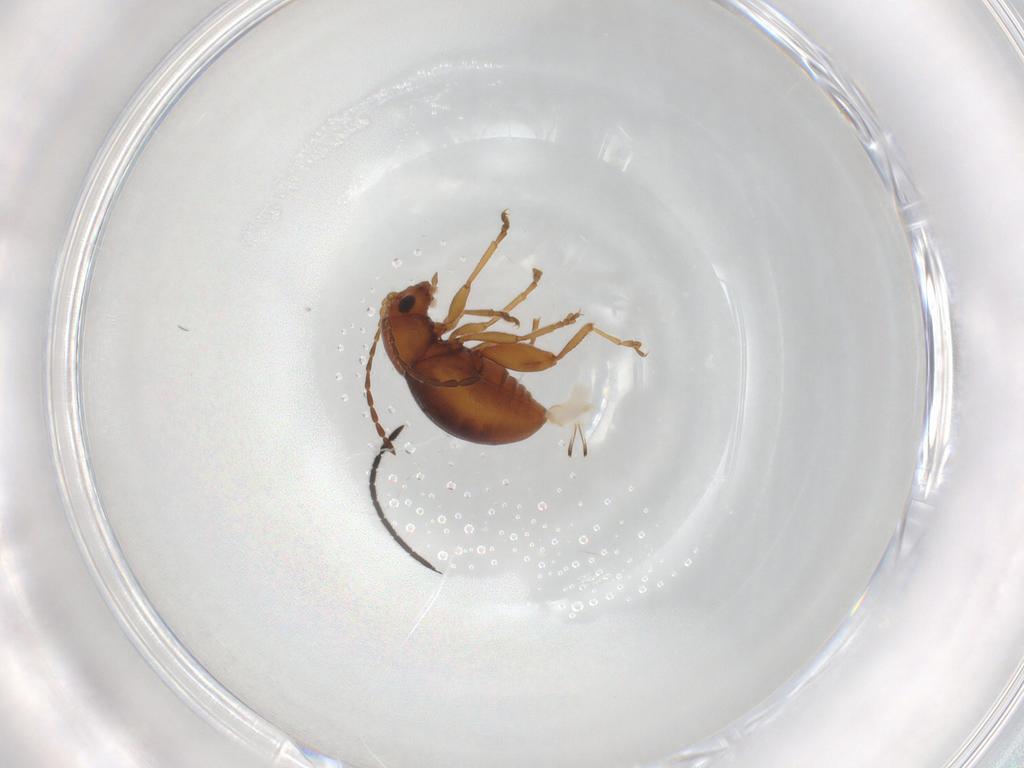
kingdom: Animalia
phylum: Arthropoda
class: Insecta
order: Coleoptera
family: Chrysomelidae
